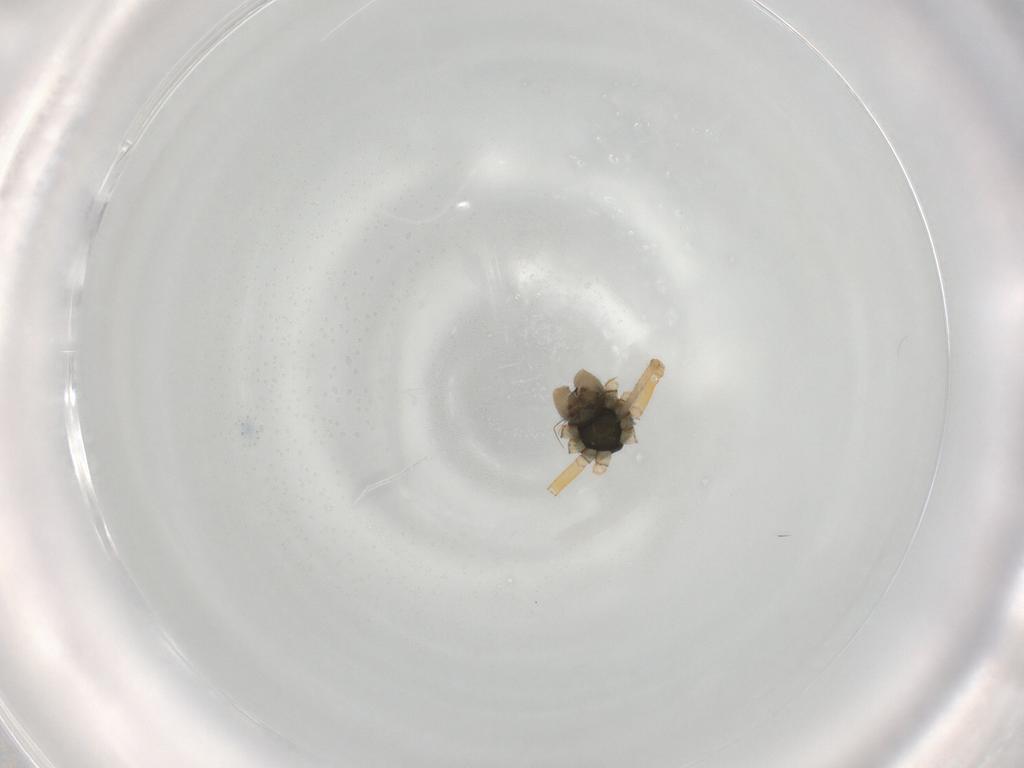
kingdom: Animalia
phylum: Arthropoda
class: Arachnida
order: Araneae
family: Linyphiidae
